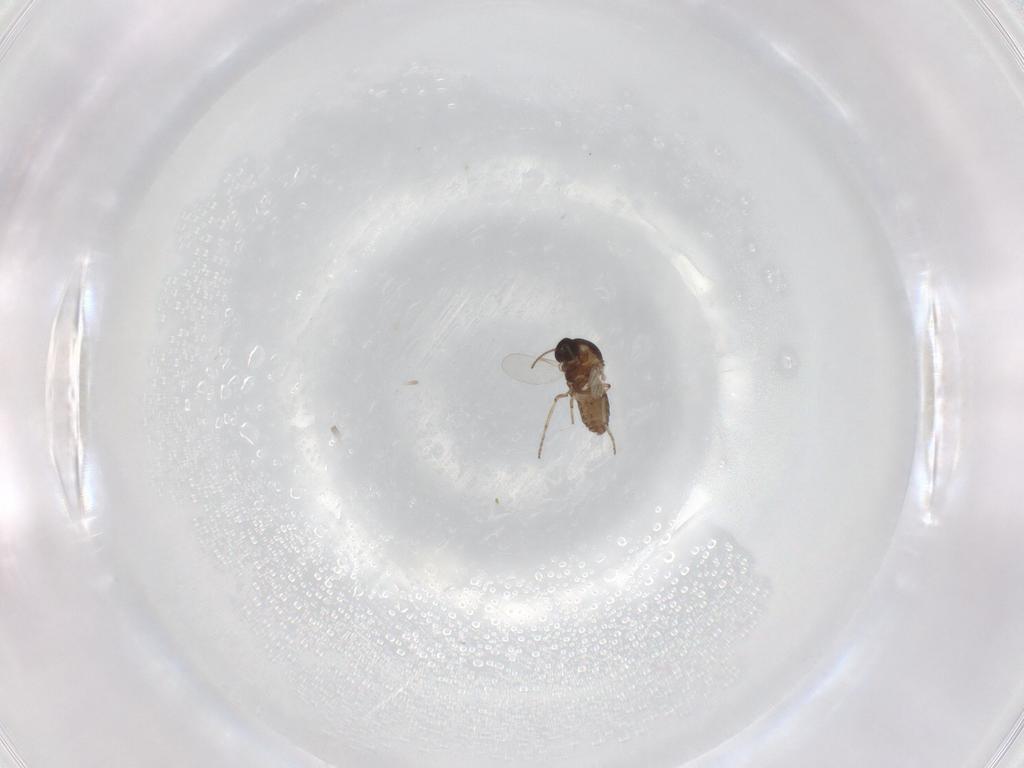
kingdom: Animalia
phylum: Arthropoda
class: Insecta
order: Diptera
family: Ceratopogonidae
